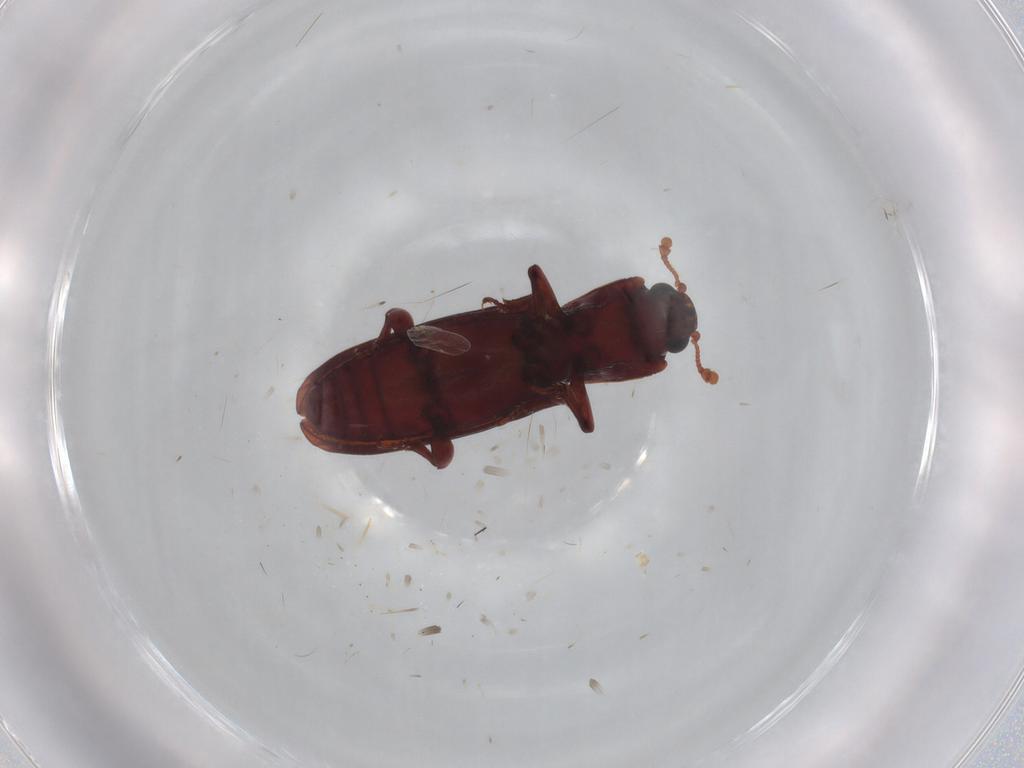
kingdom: Animalia
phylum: Arthropoda
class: Insecta
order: Coleoptera
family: Bothrideridae
